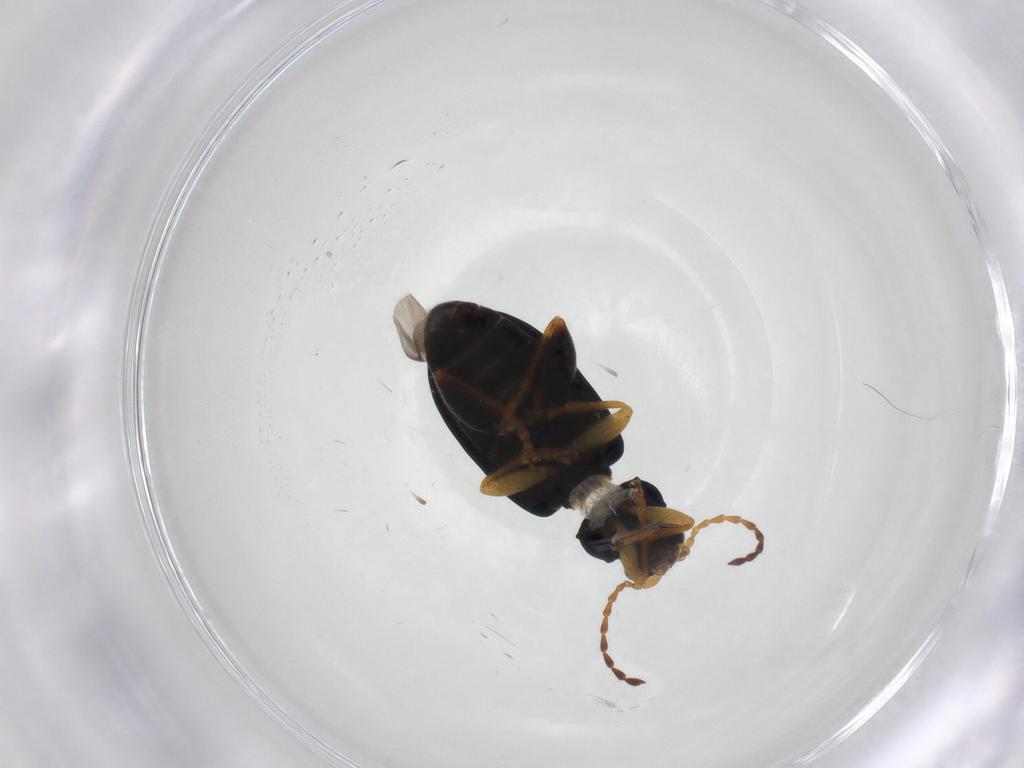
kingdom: Animalia
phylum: Arthropoda
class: Insecta
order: Coleoptera
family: Chrysomelidae
